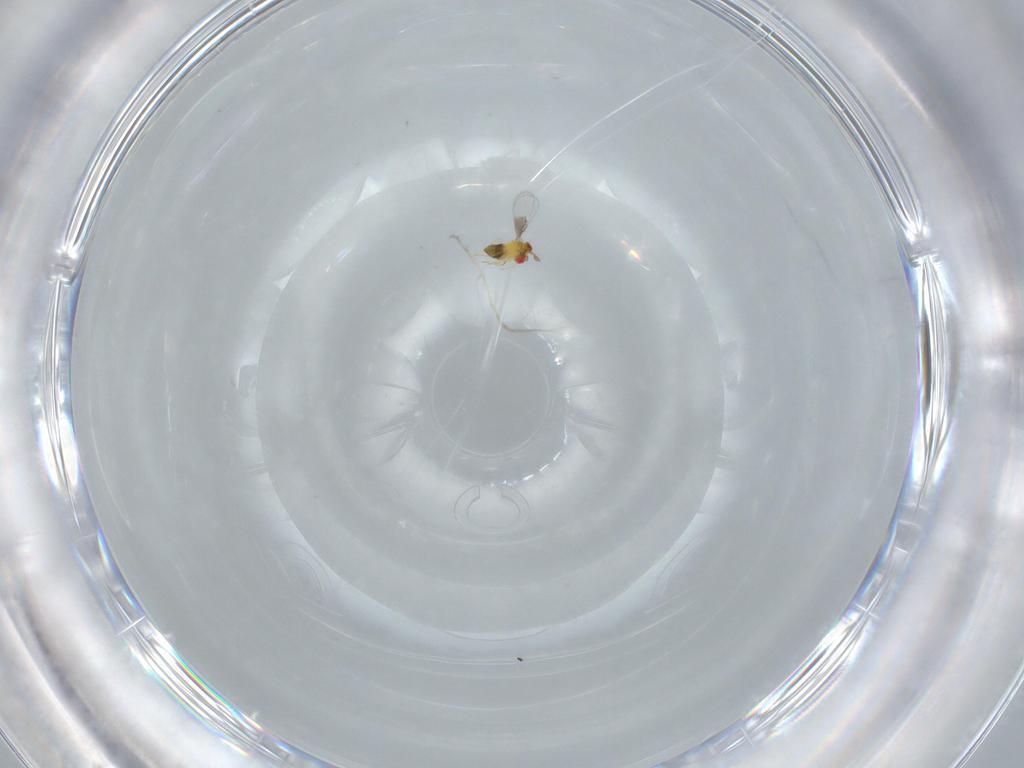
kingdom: Animalia
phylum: Arthropoda
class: Insecta
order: Hymenoptera
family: Trichogrammatidae
